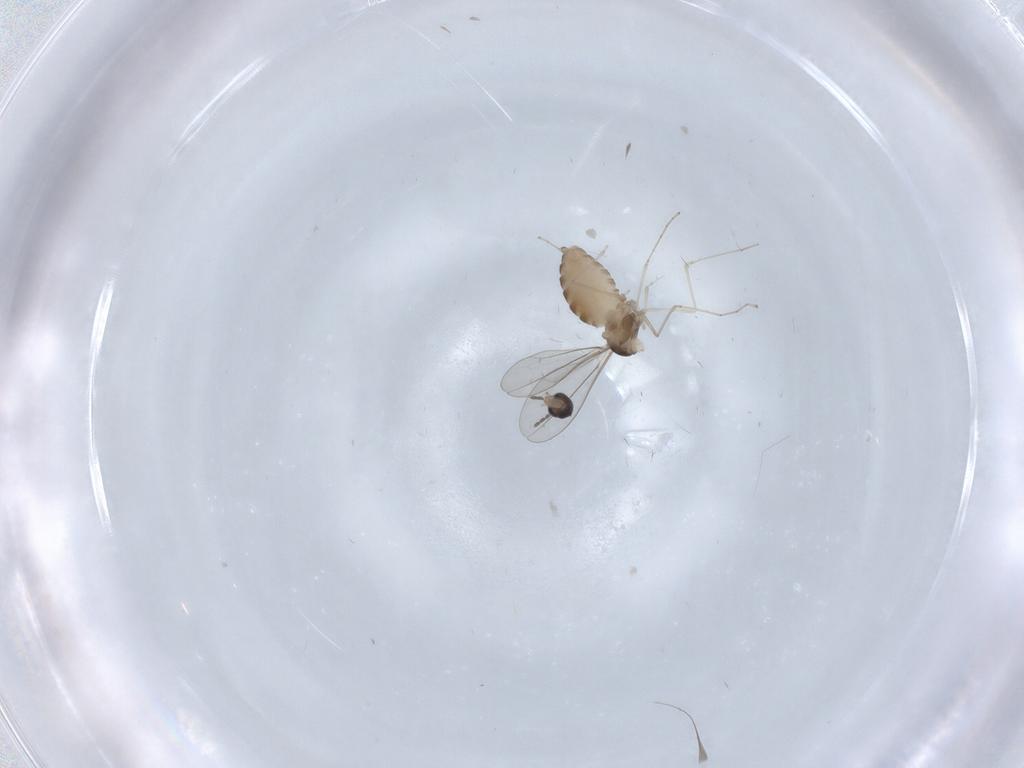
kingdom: Animalia
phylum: Arthropoda
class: Insecta
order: Diptera
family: Cecidomyiidae
